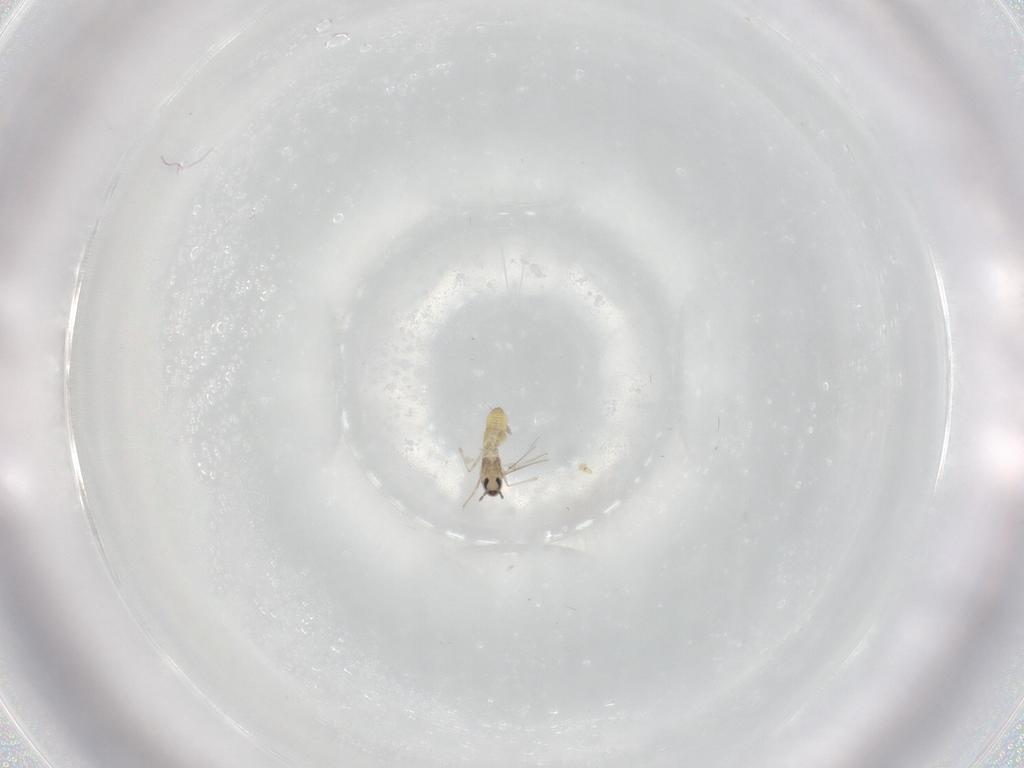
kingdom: Animalia
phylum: Arthropoda
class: Insecta
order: Diptera
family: Cecidomyiidae
